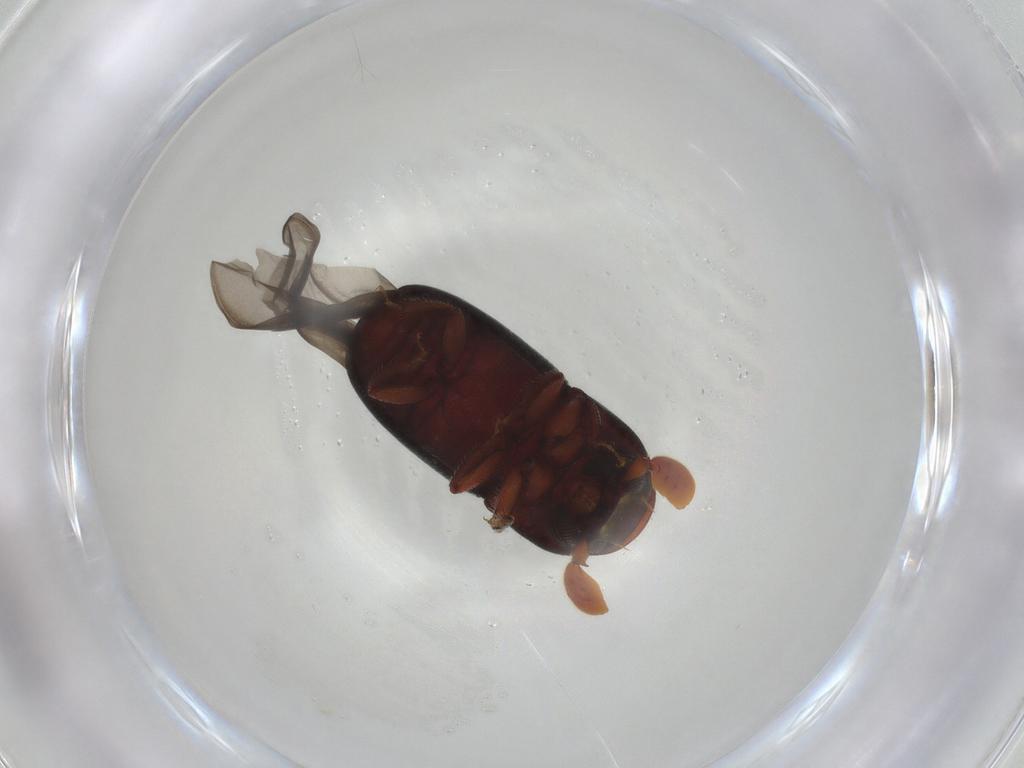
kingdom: Animalia
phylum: Arthropoda
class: Insecta
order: Coleoptera
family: Curculionidae
